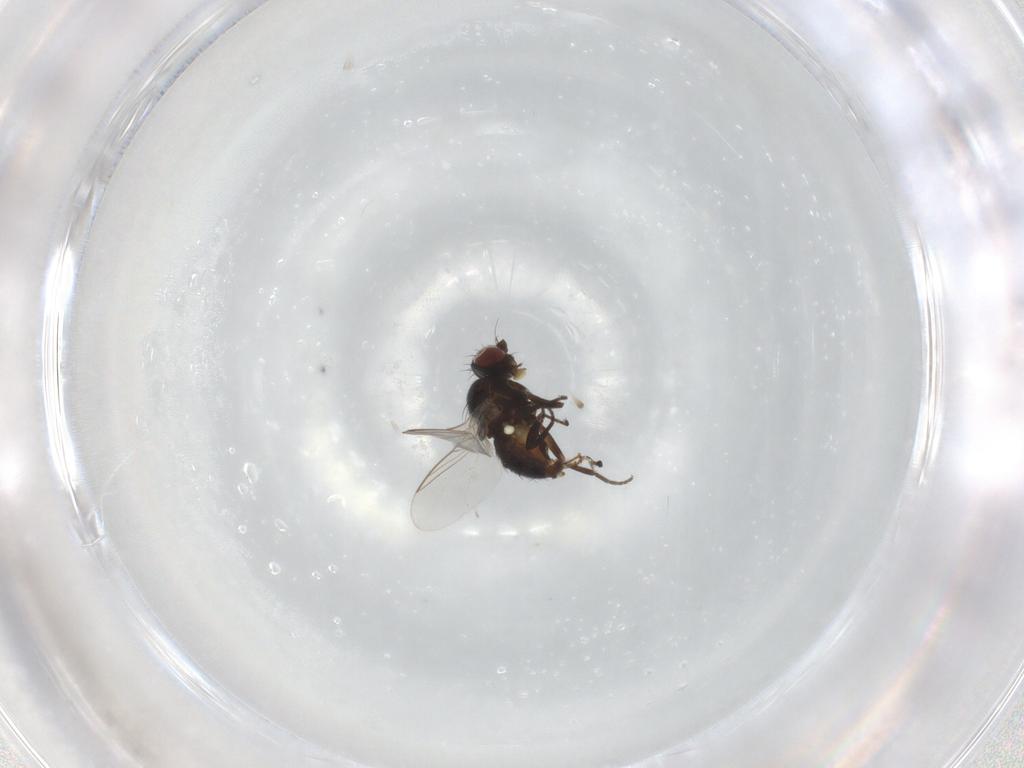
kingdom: Animalia
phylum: Arthropoda
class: Insecta
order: Diptera
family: Agromyzidae
